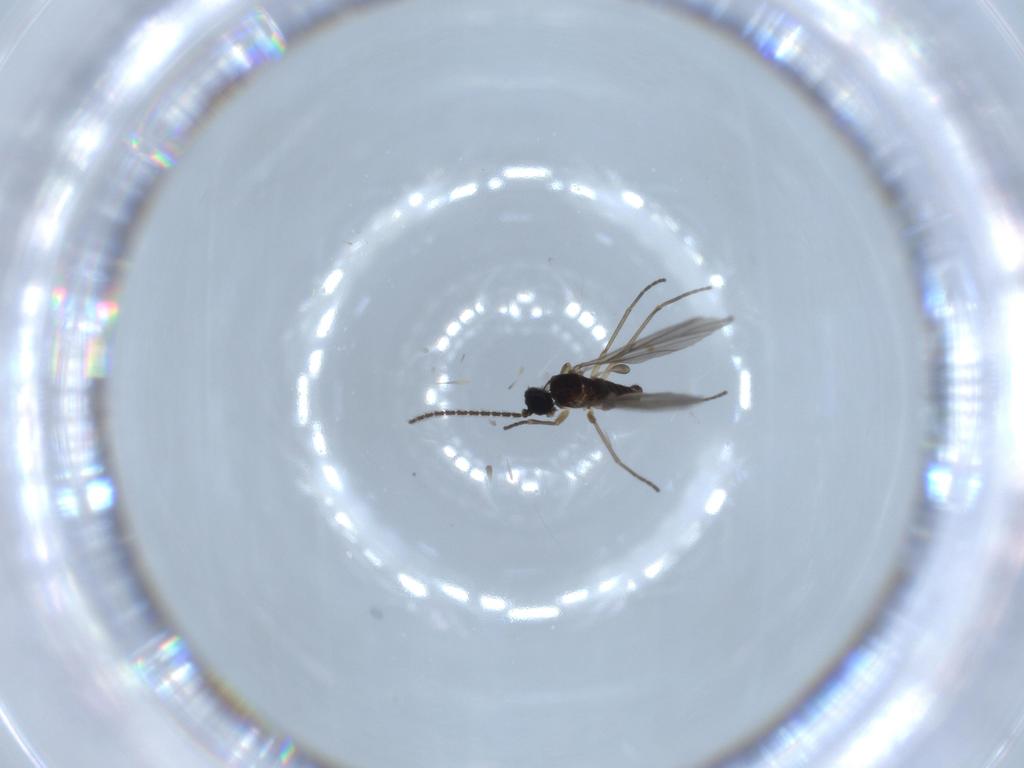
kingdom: Animalia
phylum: Arthropoda
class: Insecta
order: Diptera
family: Sciaridae
